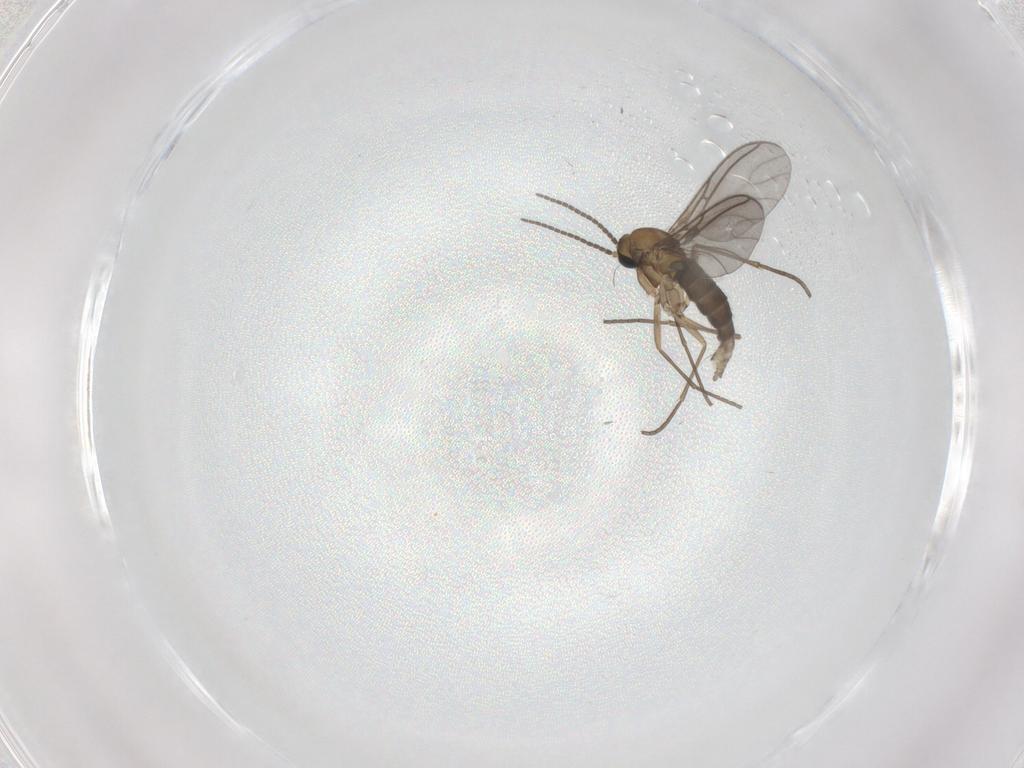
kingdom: Animalia
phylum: Arthropoda
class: Insecta
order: Diptera
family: Sciaridae
